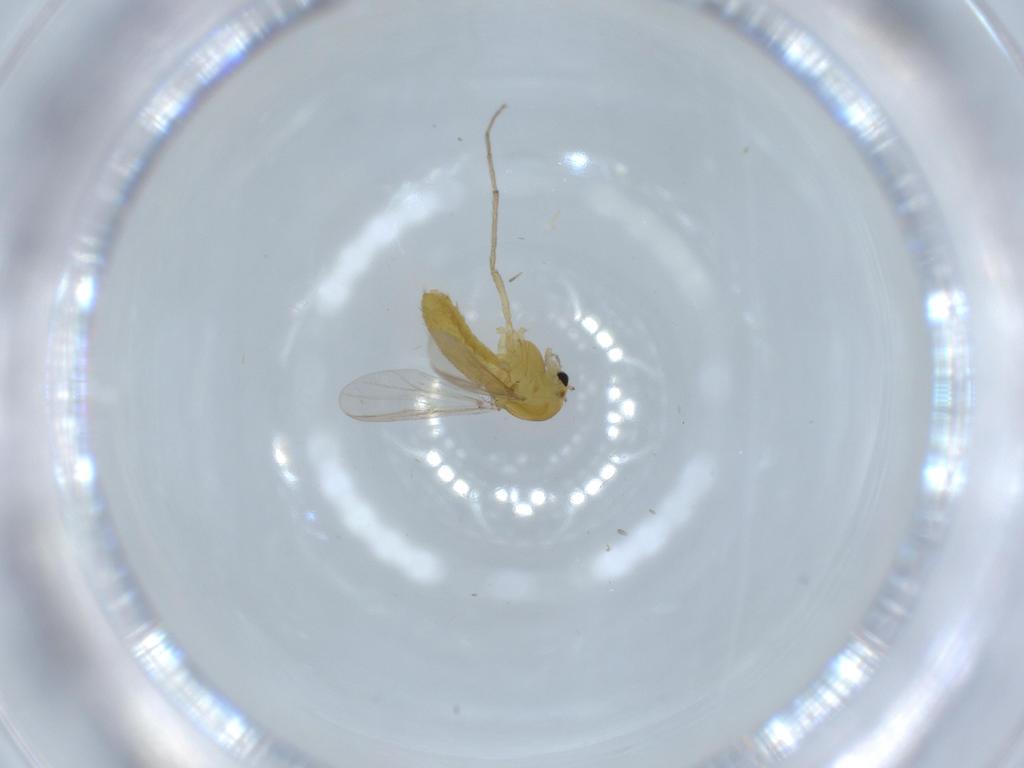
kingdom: Animalia
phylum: Arthropoda
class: Insecta
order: Diptera
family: Chironomidae
